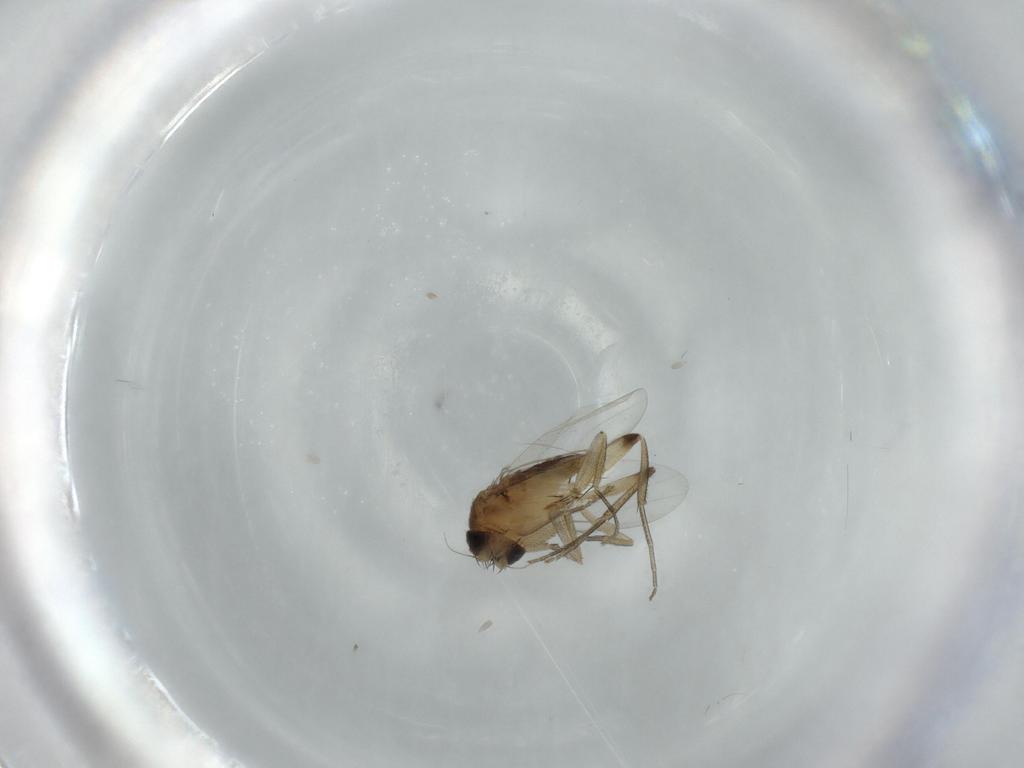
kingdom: Animalia
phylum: Arthropoda
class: Insecta
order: Diptera
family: Phoridae
